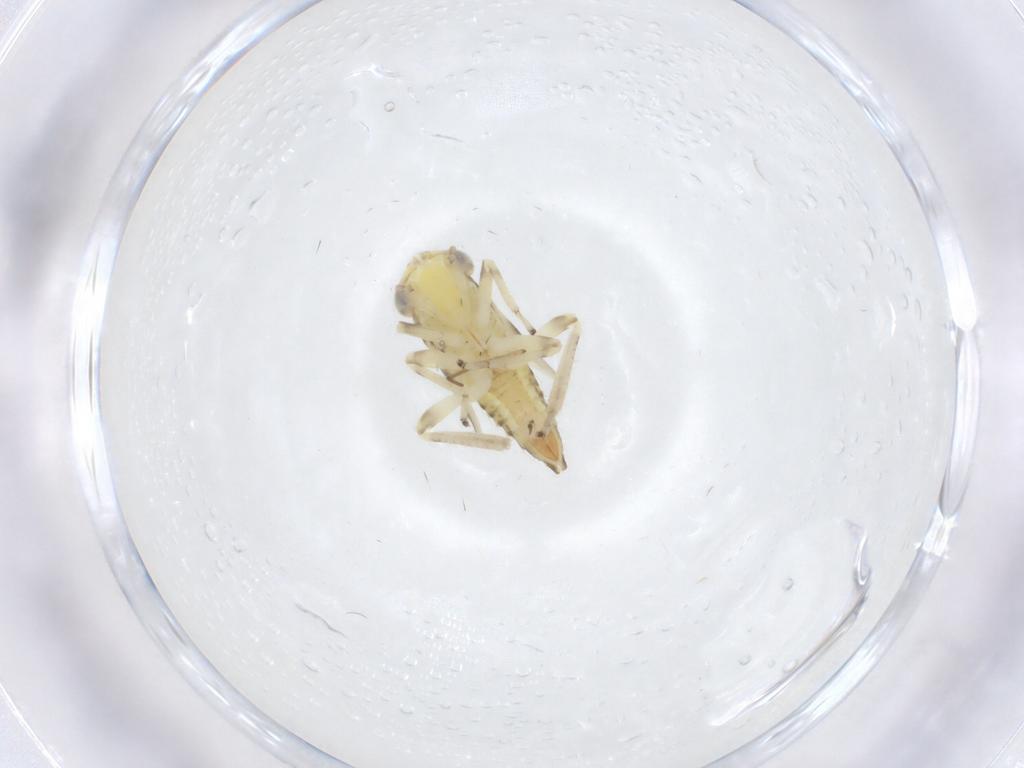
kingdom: Animalia
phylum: Arthropoda
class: Insecta
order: Hemiptera
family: Cicadellidae
